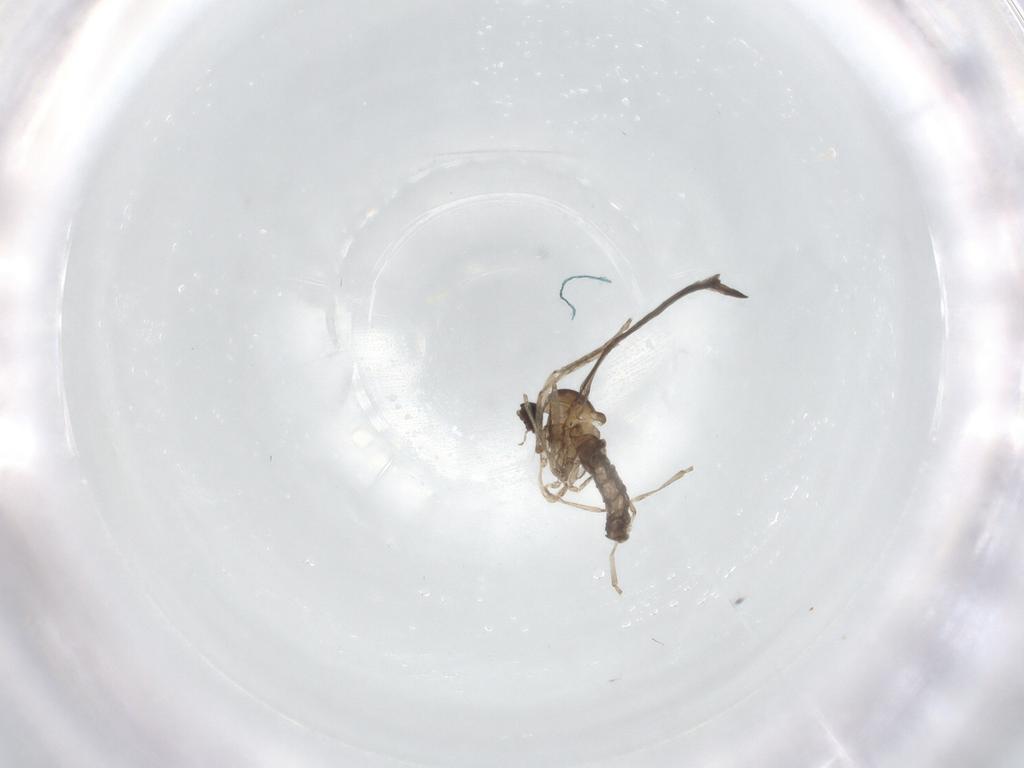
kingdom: Animalia
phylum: Arthropoda
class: Insecta
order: Diptera
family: Cecidomyiidae
